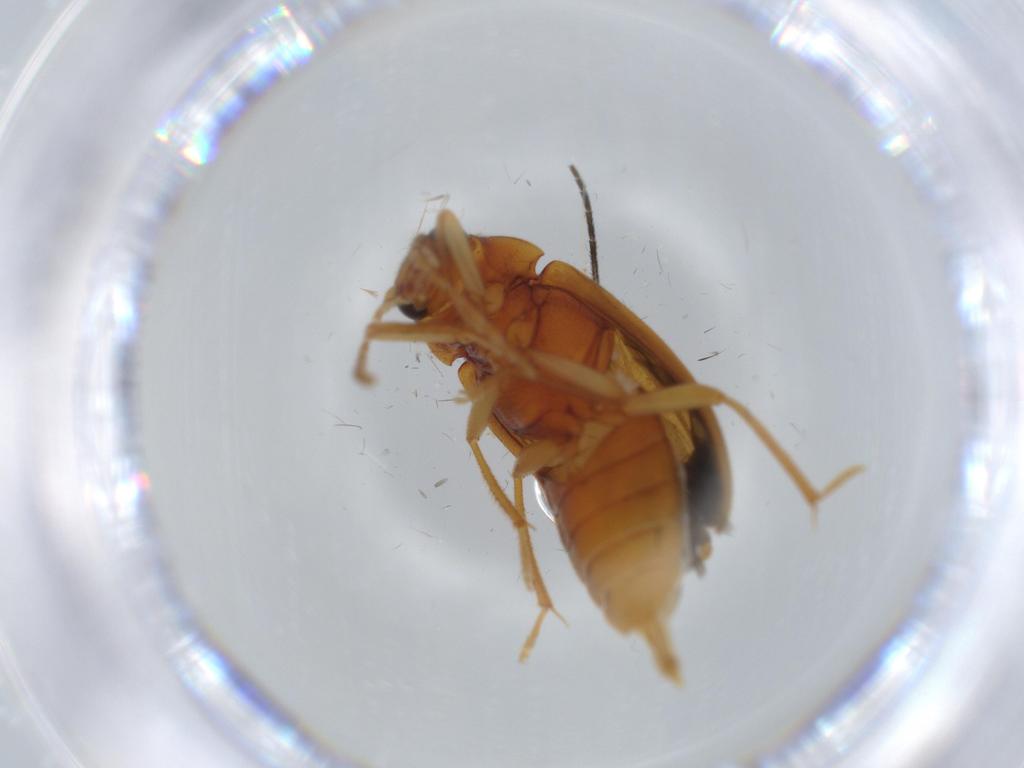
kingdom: Animalia
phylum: Arthropoda
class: Insecta
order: Coleoptera
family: Ptilodactylidae
